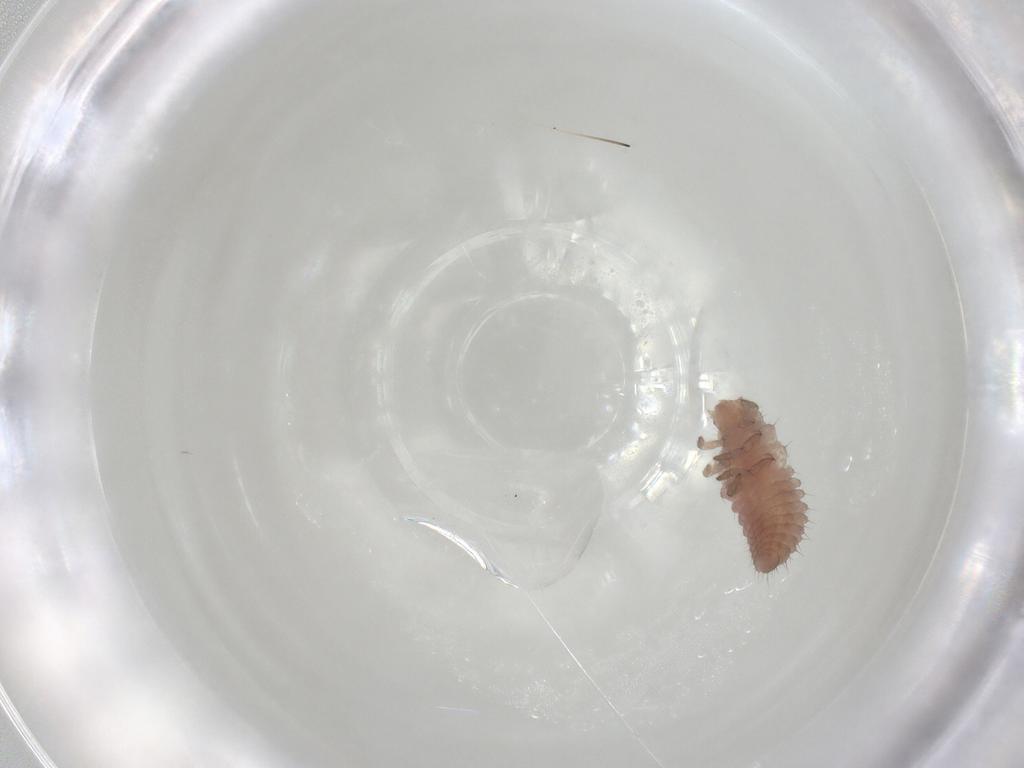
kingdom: Animalia
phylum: Arthropoda
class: Insecta
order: Coleoptera
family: Coccinellidae
